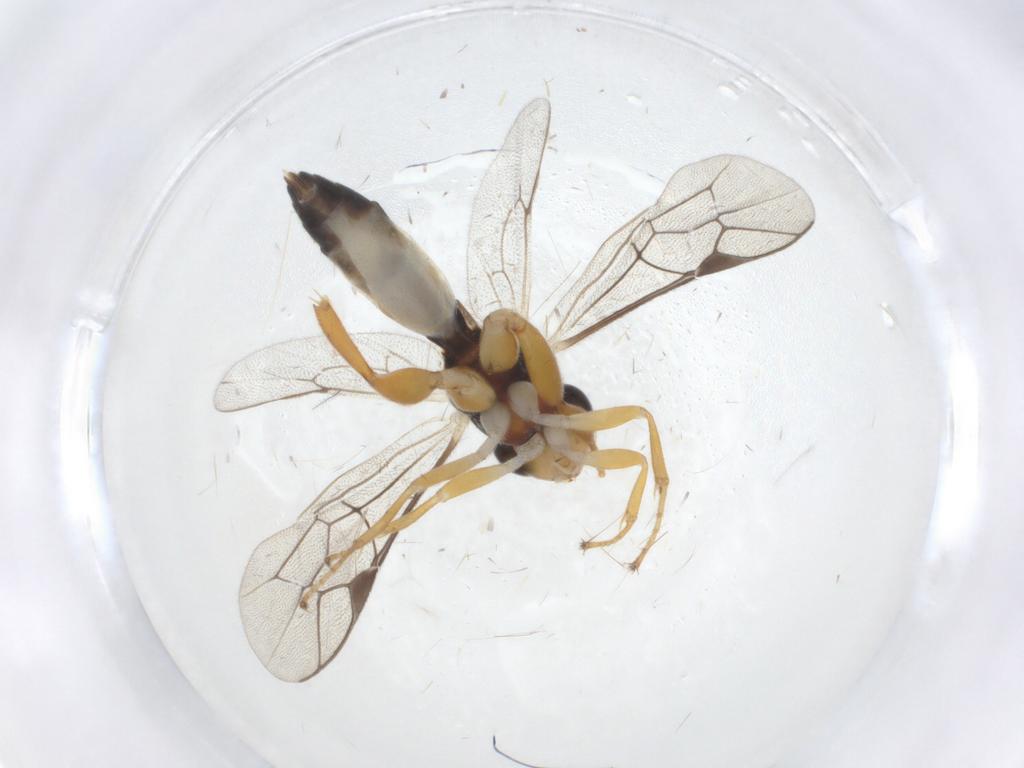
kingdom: Animalia
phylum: Arthropoda
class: Insecta
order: Hymenoptera
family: Ichneumonidae
